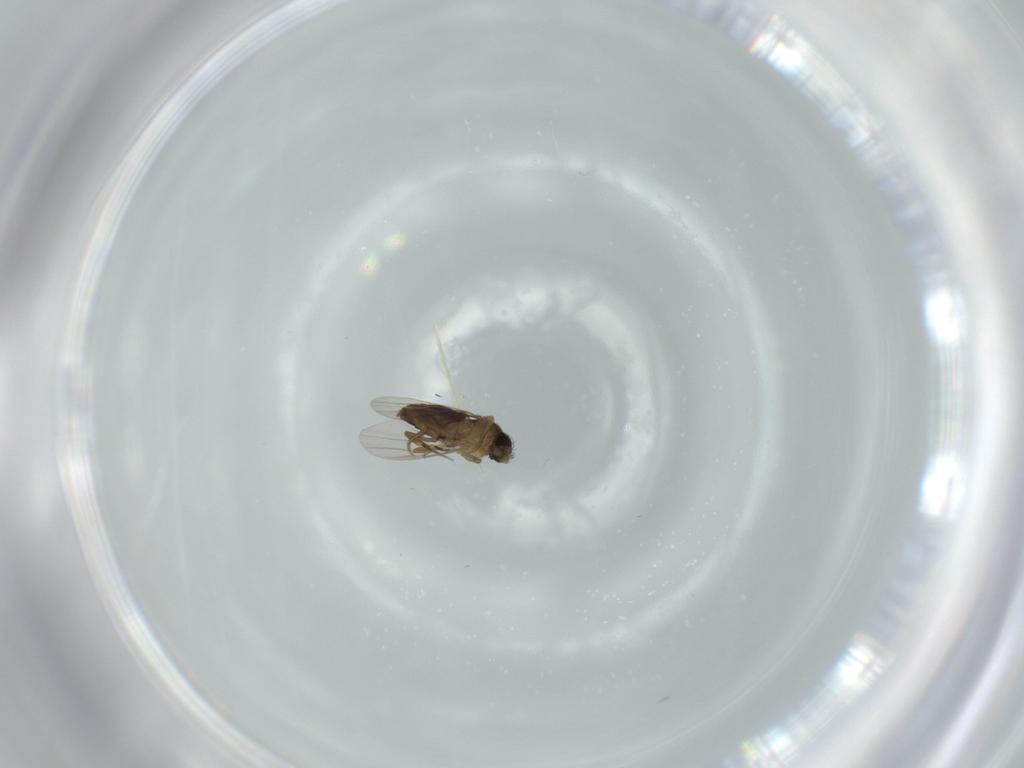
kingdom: Animalia
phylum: Arthropoda
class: Insecta
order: Diptera
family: Phoridae
